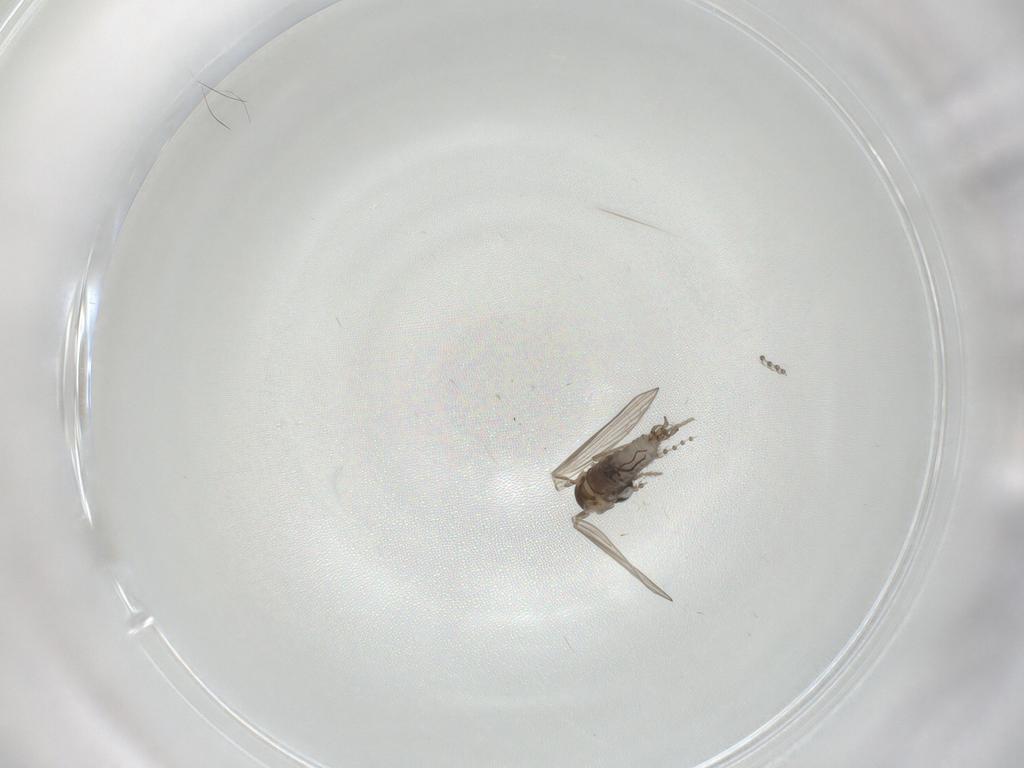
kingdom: Animalia
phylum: Arthropoda
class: Insecta
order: Diptera
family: Psychodidae
